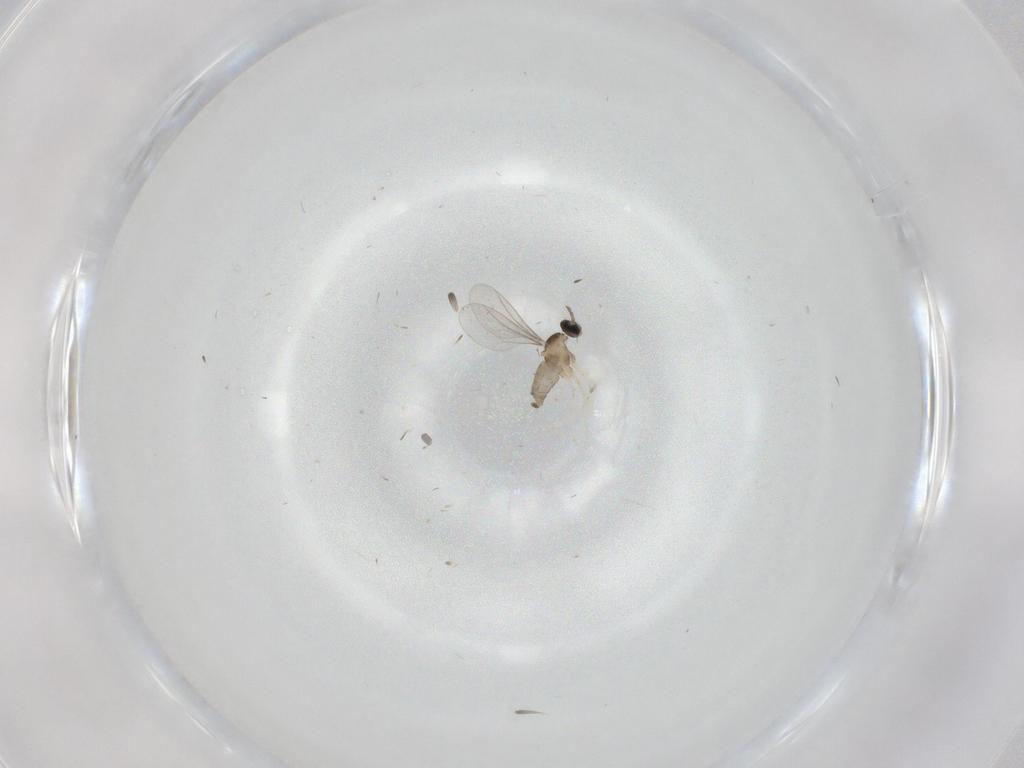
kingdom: Animalia
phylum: Arthropoda
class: Insecta
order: Diptera
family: Cecidomyiidae
